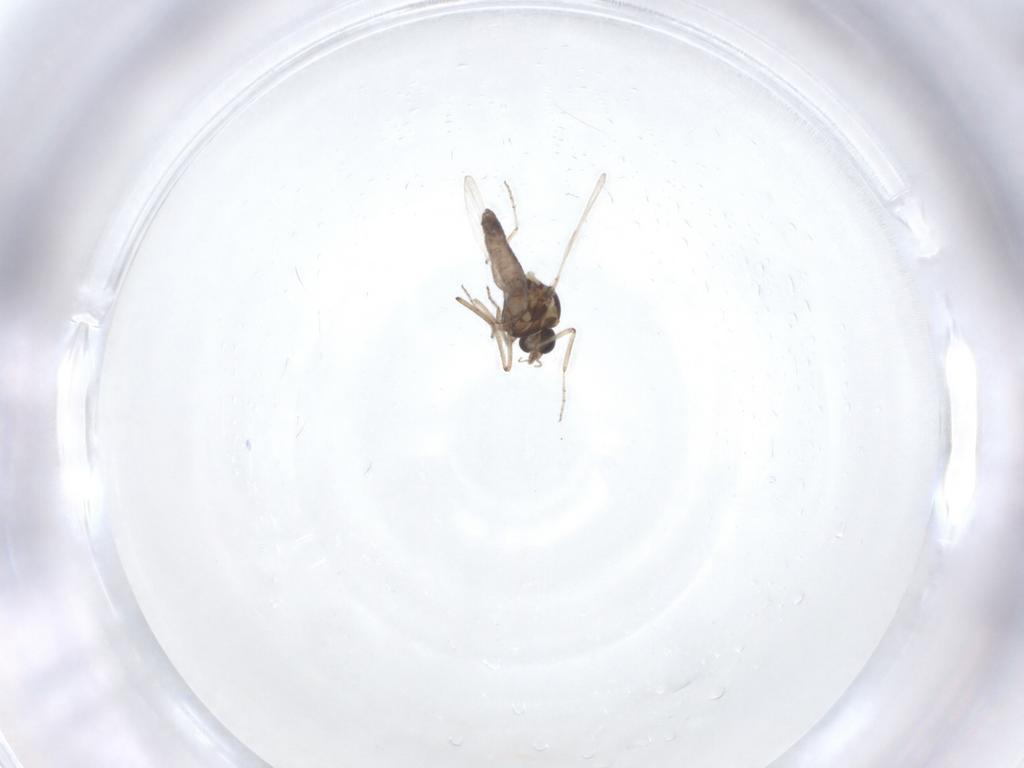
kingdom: Animalia
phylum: Arthropoda
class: Insecta
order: Diptera
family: Ceratopogonidae
